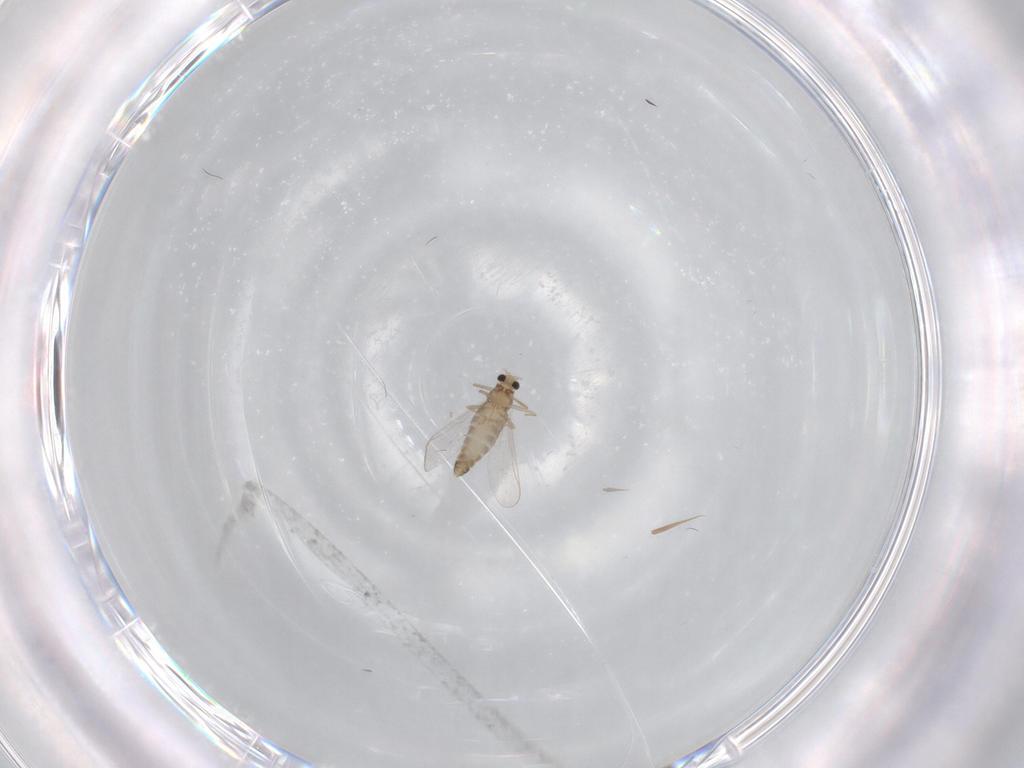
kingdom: Animalia
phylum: Arthropoda
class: Insecta
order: Diptera
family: Chironomidae
